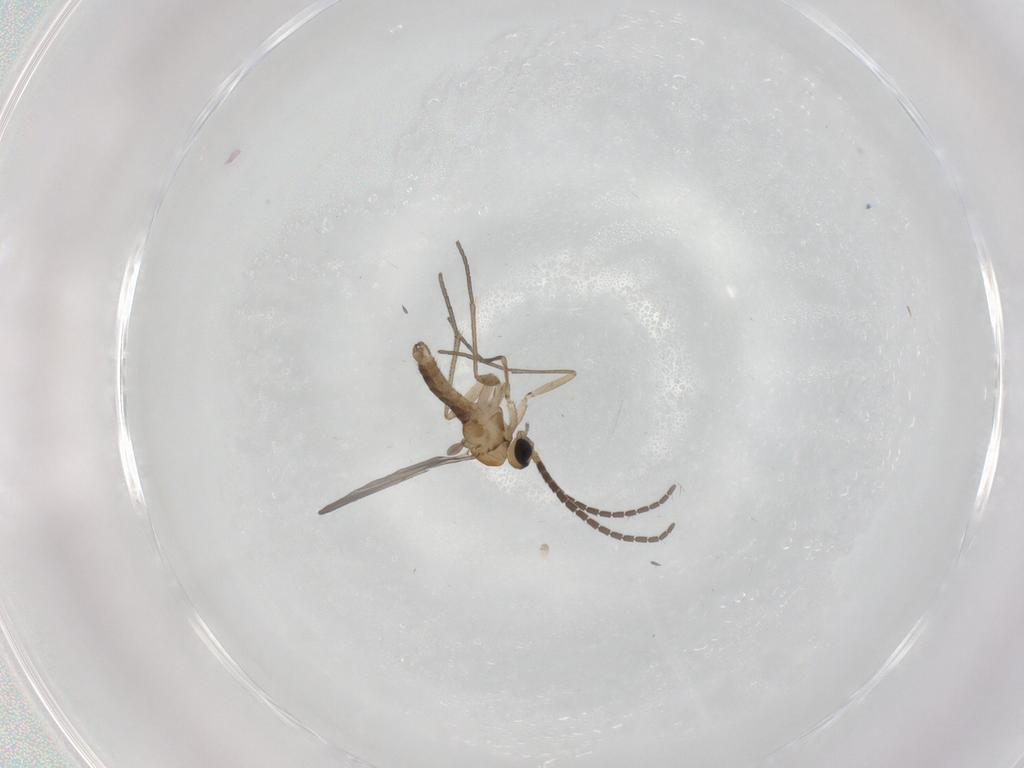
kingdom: Animalia
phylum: Arthropoda
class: Insecta
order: Diptera
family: Sciaridae
